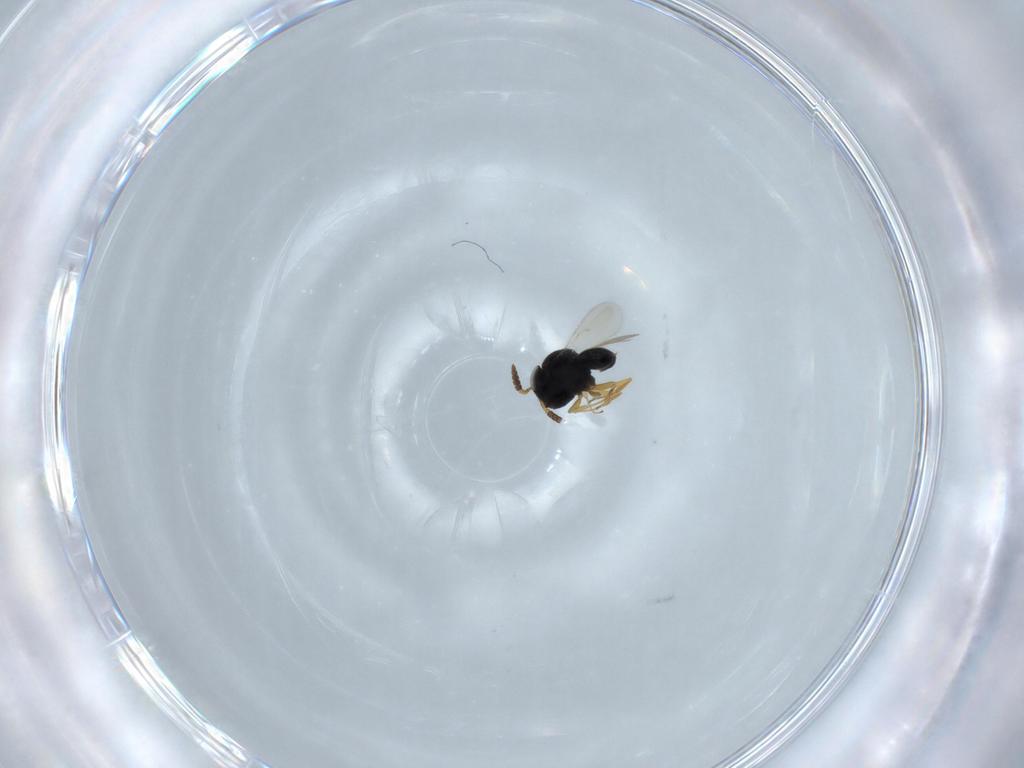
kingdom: Animalia
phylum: Arthropoda
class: Insecta
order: Hymenoptera
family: Scelionidae
